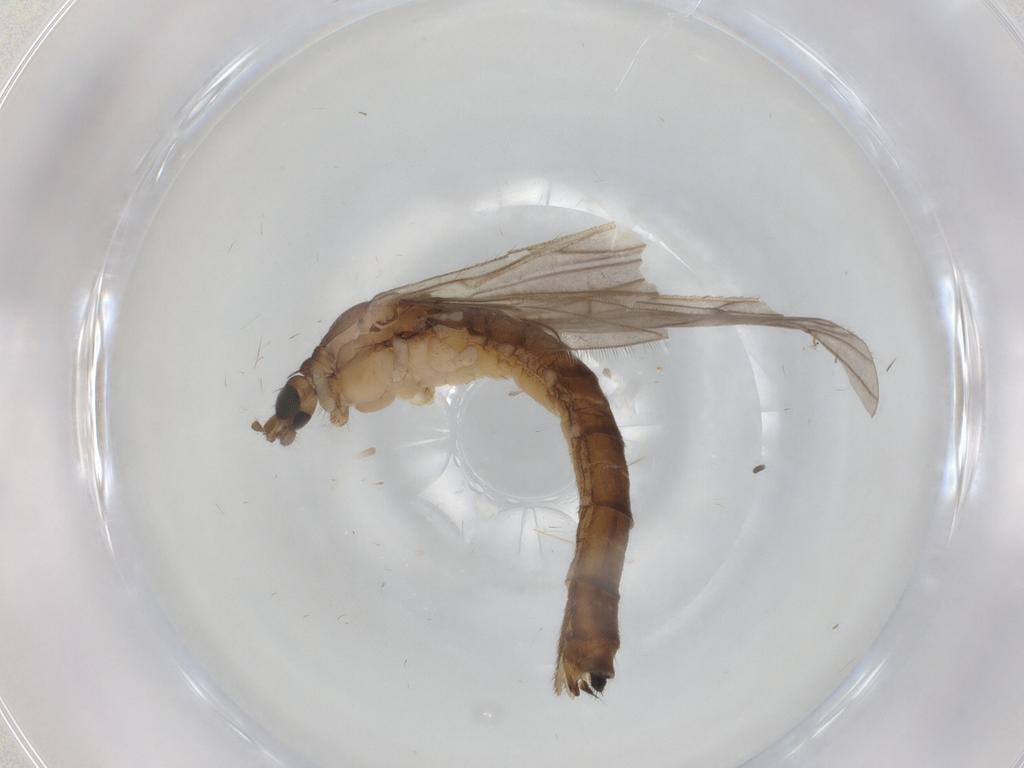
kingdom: Animalia
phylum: Arthropoda
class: Insecta
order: Diptera
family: Limoniidae
